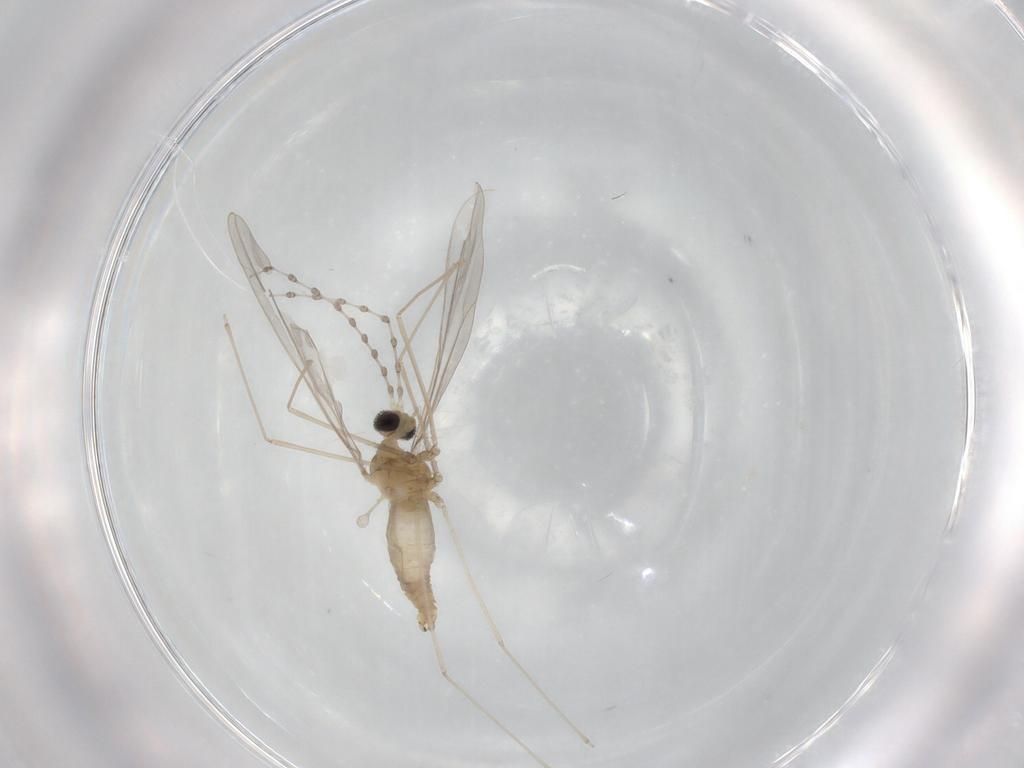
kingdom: Animalia
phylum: Arthropoda
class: Insecta
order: Diptera
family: Cecidomyiidae
